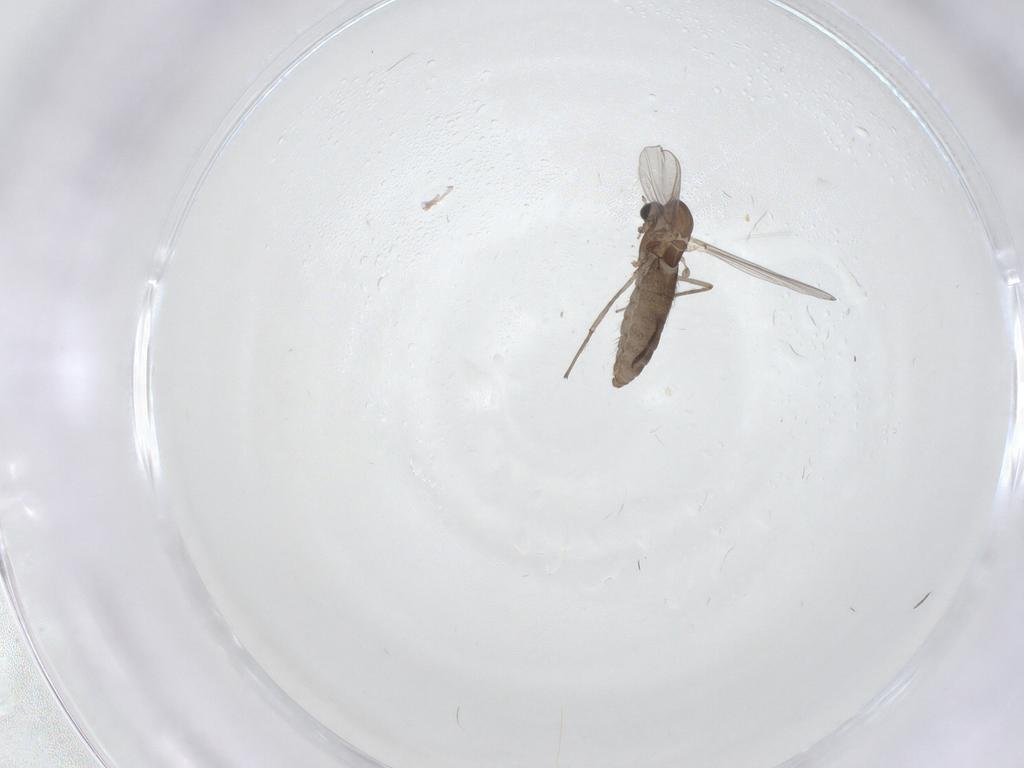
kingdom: Animalia
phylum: Arthropoda
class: Insecta
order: Diptera
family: Chironomidae
